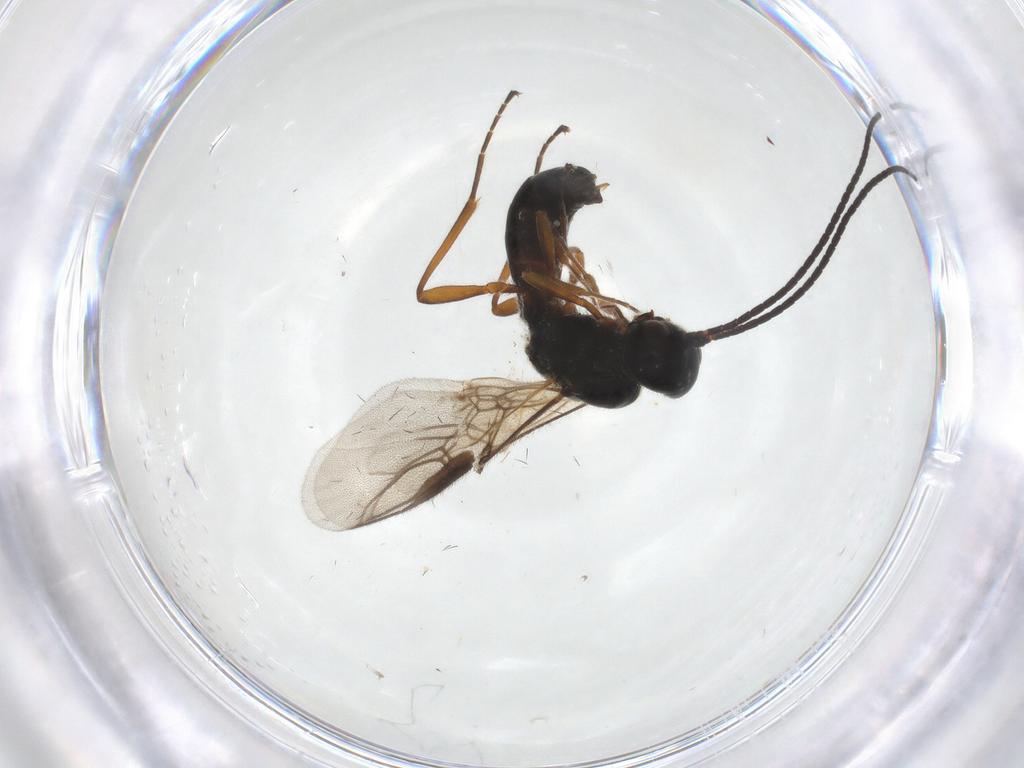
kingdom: Animalia
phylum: Arthropoda
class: Insecta
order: Hymenoptera
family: Braconidae
